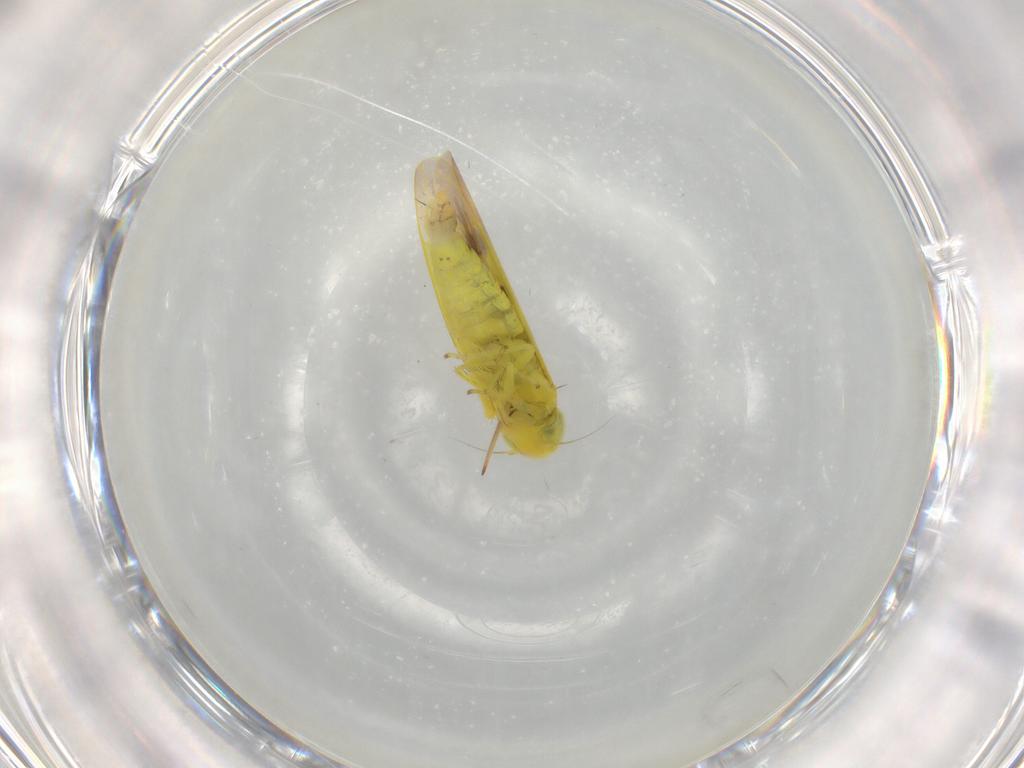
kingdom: Animalia
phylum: Arthropoda
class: Insecta
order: Hemiptera
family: Cicadellidae
